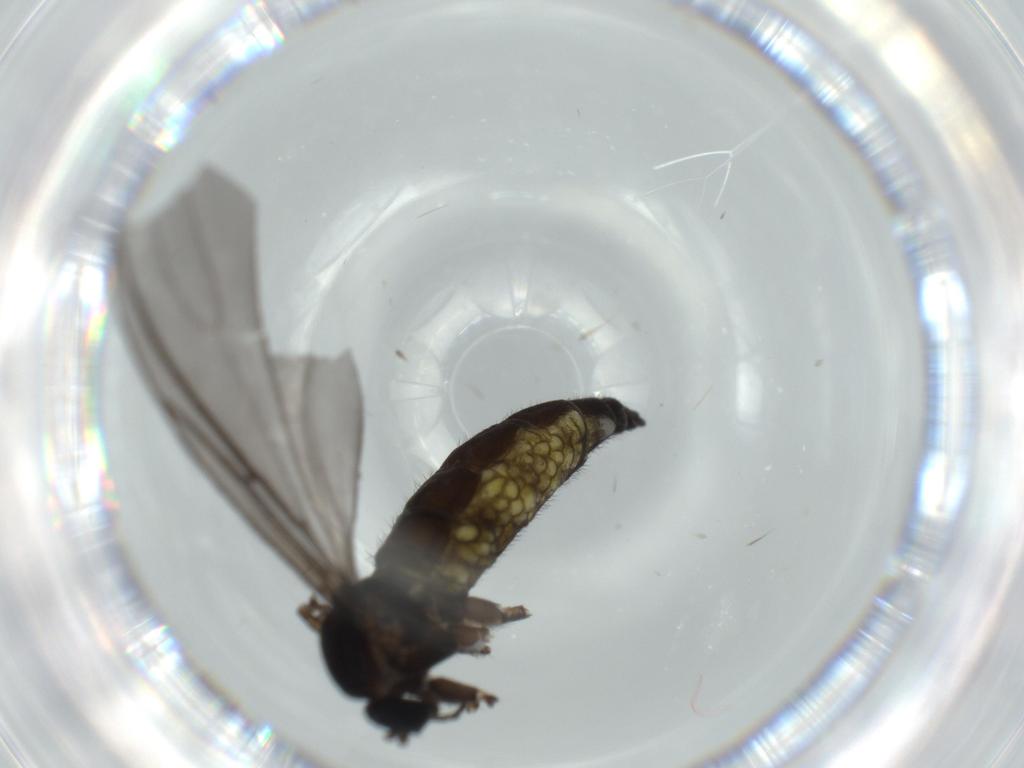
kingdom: Animalia
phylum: Arthropoda
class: Insecta
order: Diptera
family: Sciaridae
